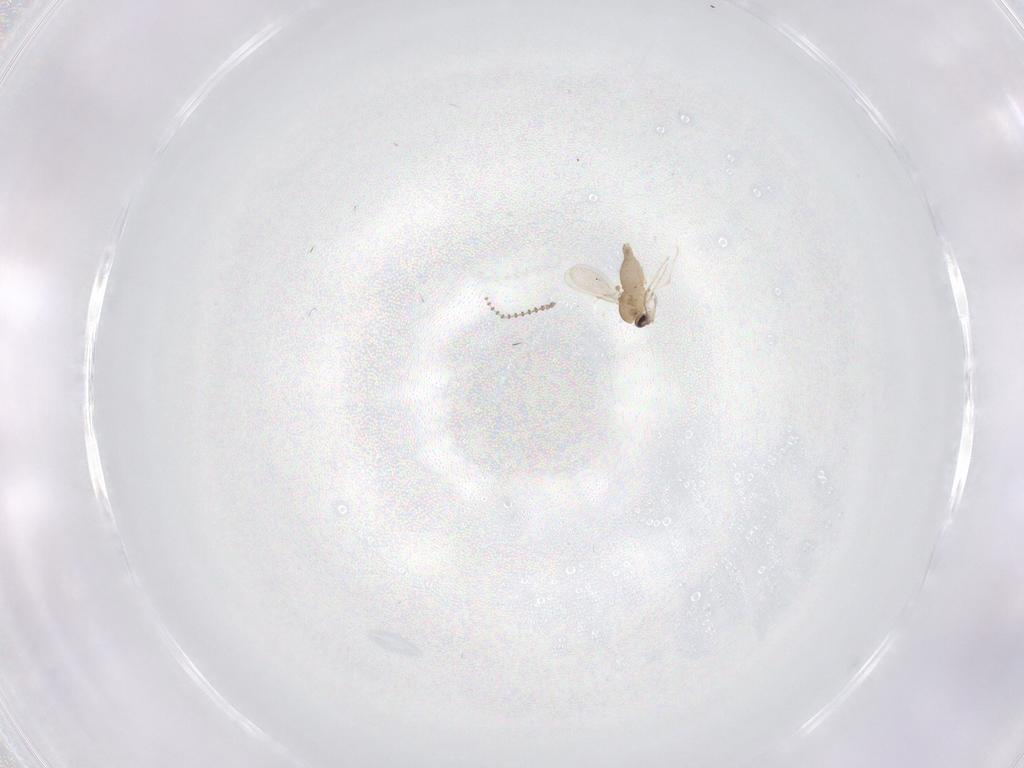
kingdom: Animalia
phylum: Arthropoda
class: Insecta
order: Diptera
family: Ceratopogonidae
